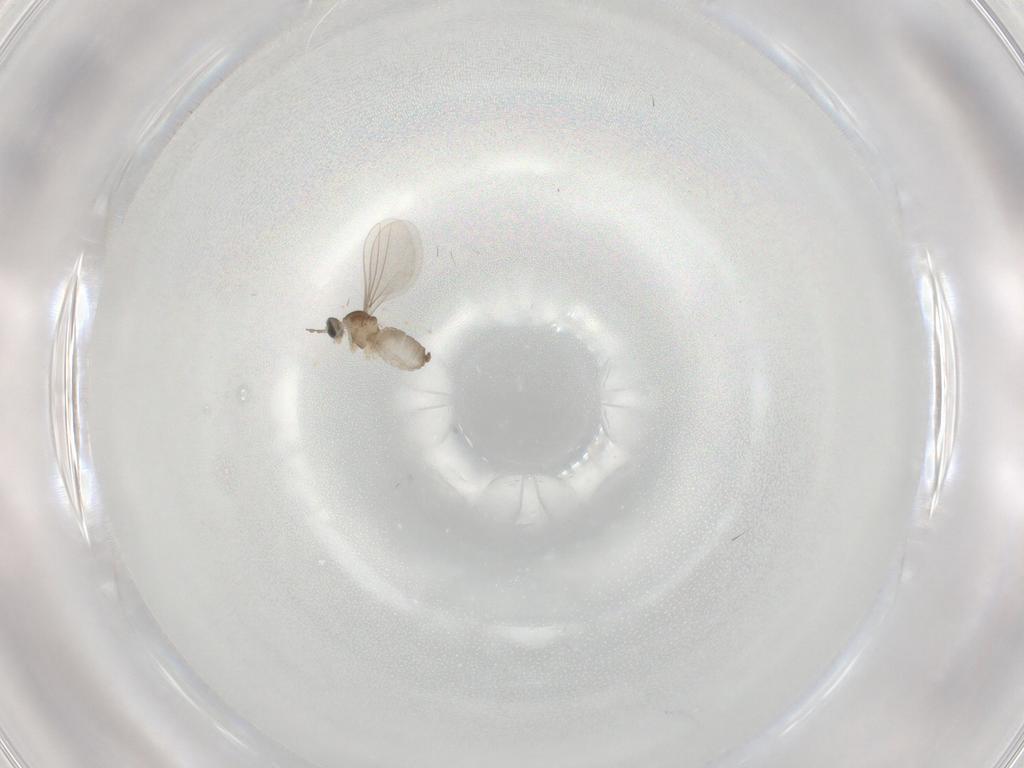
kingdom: Animalia
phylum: Arthropoda
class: Insecta
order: Diptera
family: Cecidomyiidae
